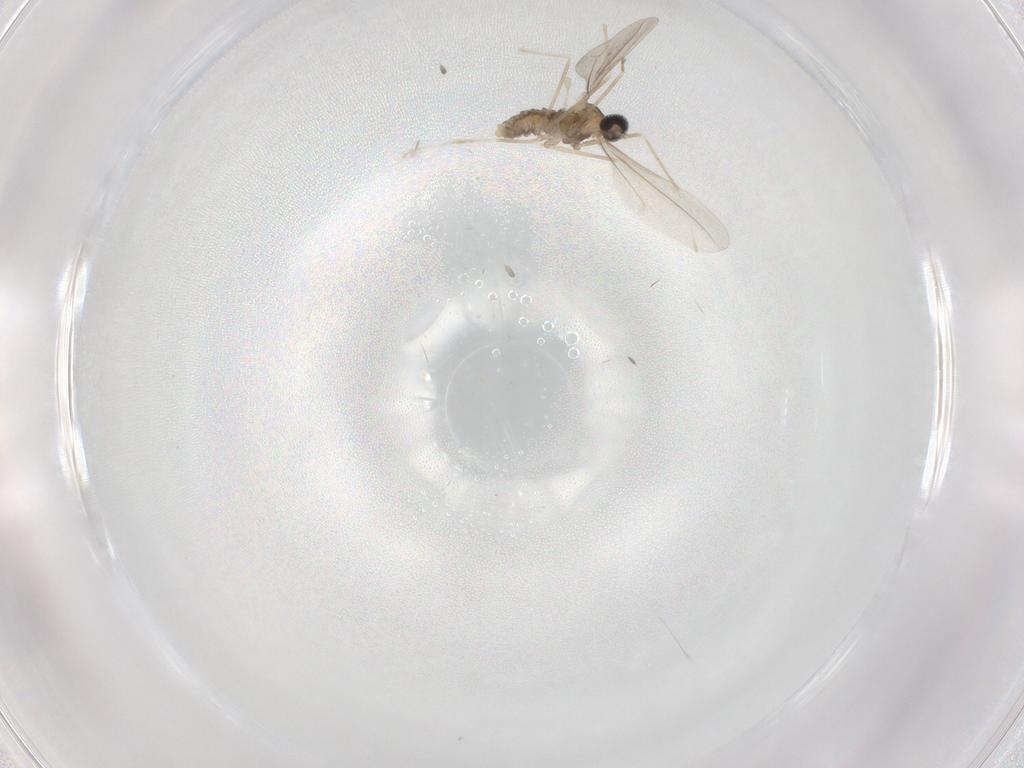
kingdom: Animalia
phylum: Arthropoda
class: Insecta
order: Diptera
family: Cecidomyiidae
